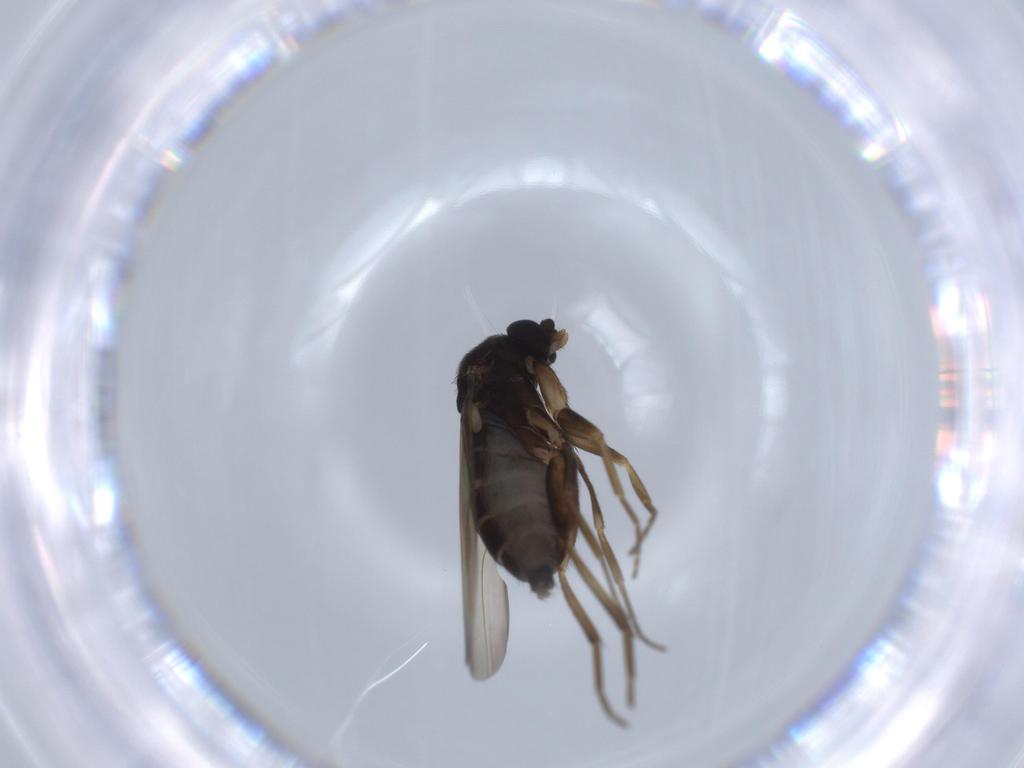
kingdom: Animalia
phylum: Arthropoda
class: Insecta
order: Diptera
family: Phoridae
